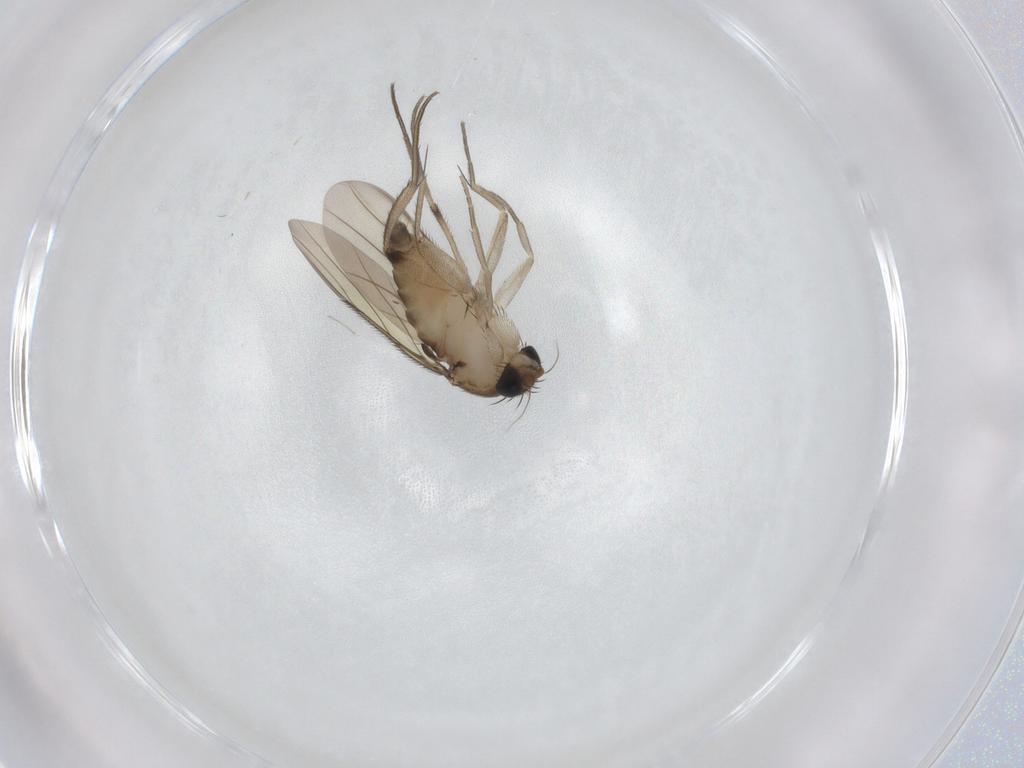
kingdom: Animalia
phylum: Arthropoda
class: Insecta
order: Diptera
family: Phoridae
